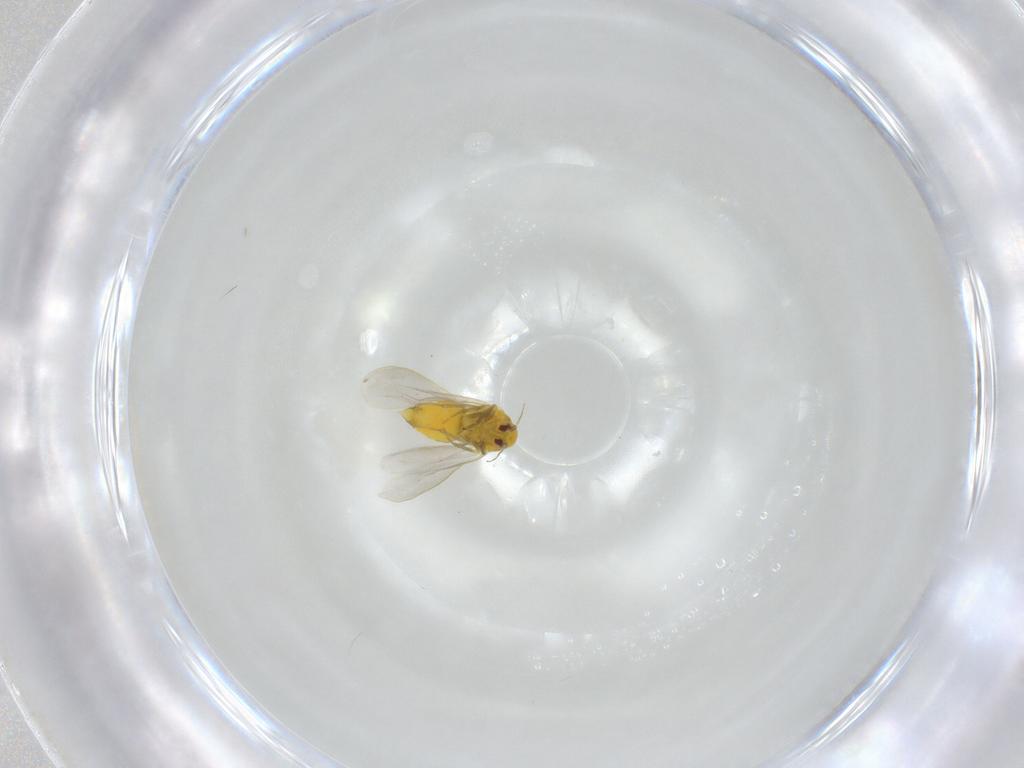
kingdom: Animalia
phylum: Arthropoda
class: Insecta
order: Hemiptera
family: Aleyrodidae
